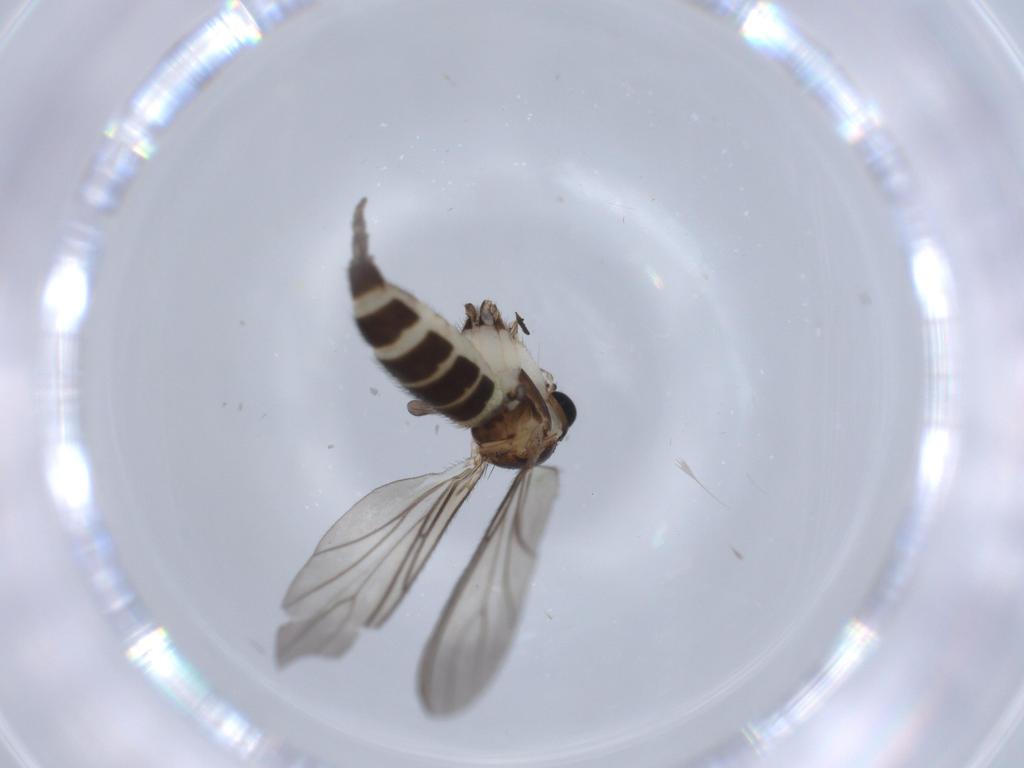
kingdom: Animalia
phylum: Arthropoda
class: Insecta
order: Diptera
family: Sciaridae
